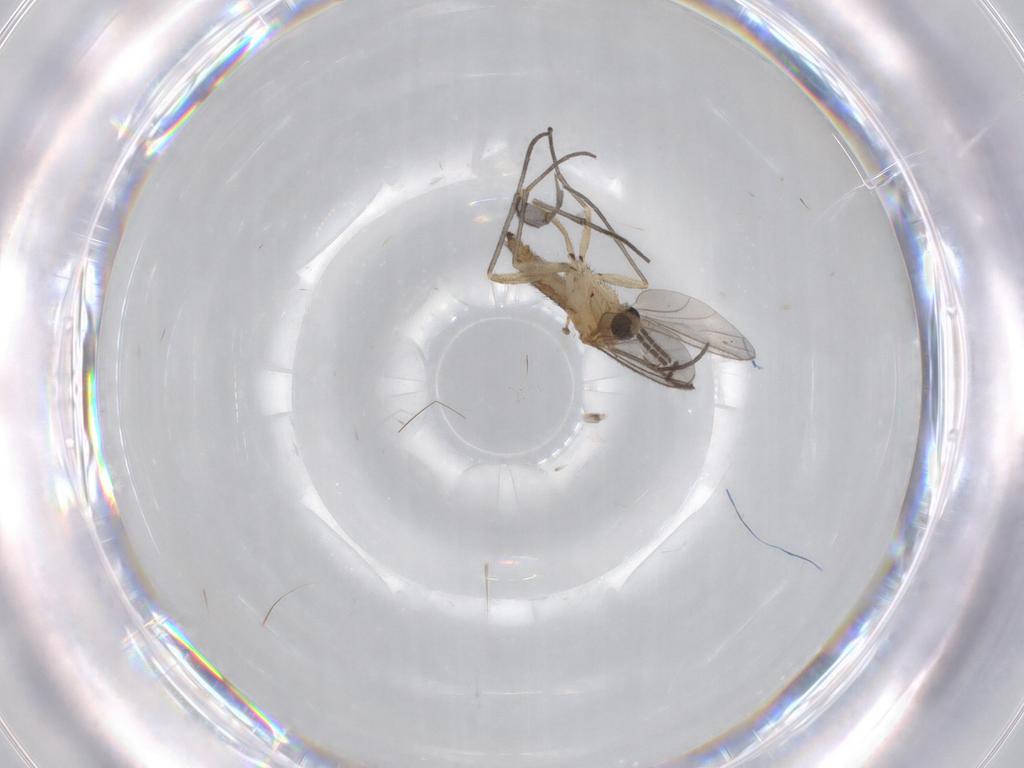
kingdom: Animalia
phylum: Arthropoda
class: Insecta
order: Diptera
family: Sciaridae
